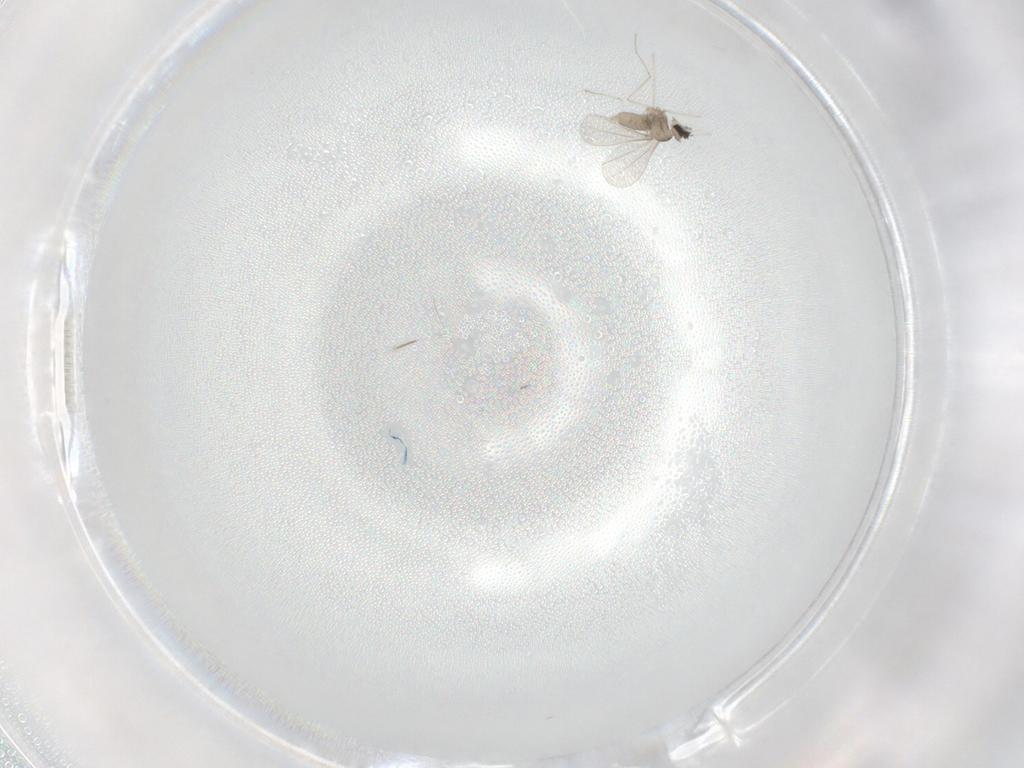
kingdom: Animalia
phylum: Arthropoda
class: Insecta
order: Diptera
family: Cecidomyiidae
